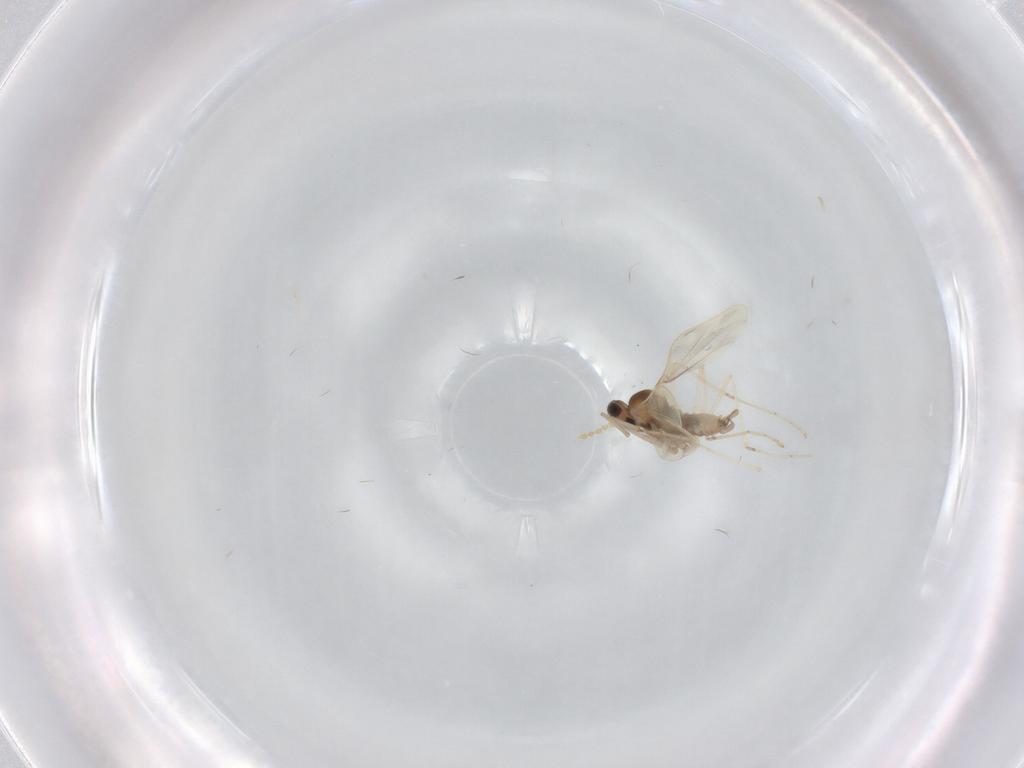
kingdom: Animalia
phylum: Arthropoda
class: Insecta
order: Diptera
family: Cecidomyiidae
